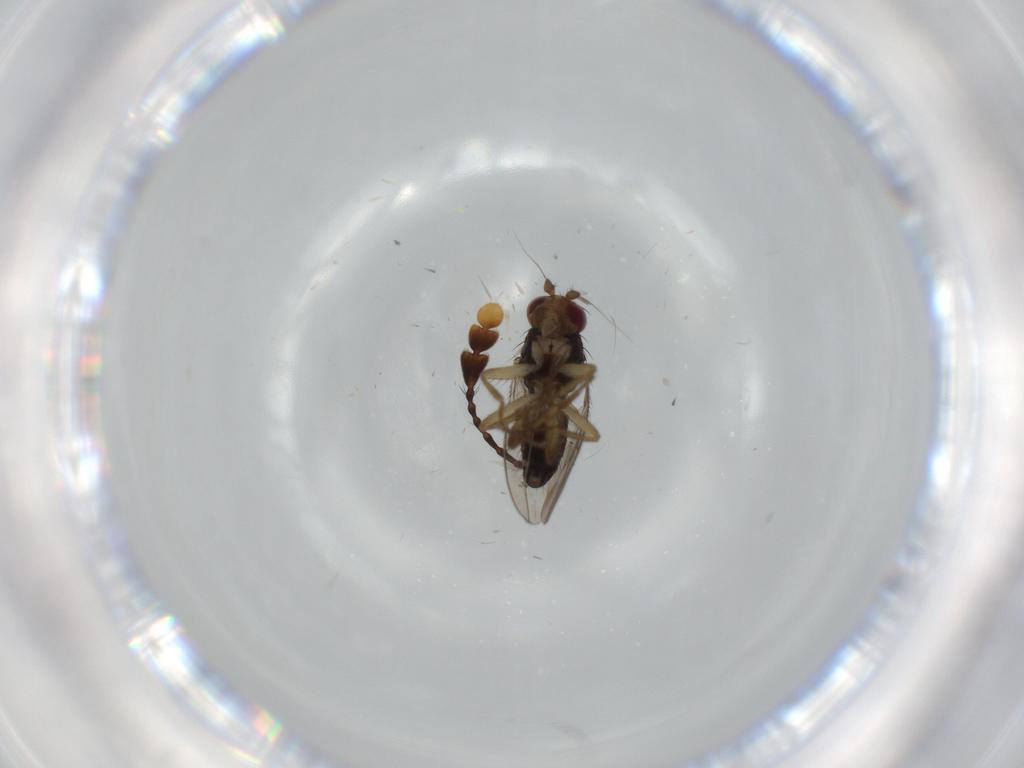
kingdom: Animalia
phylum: Arthropoda
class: Insecta
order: Diptera
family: Sphaeroceridae
